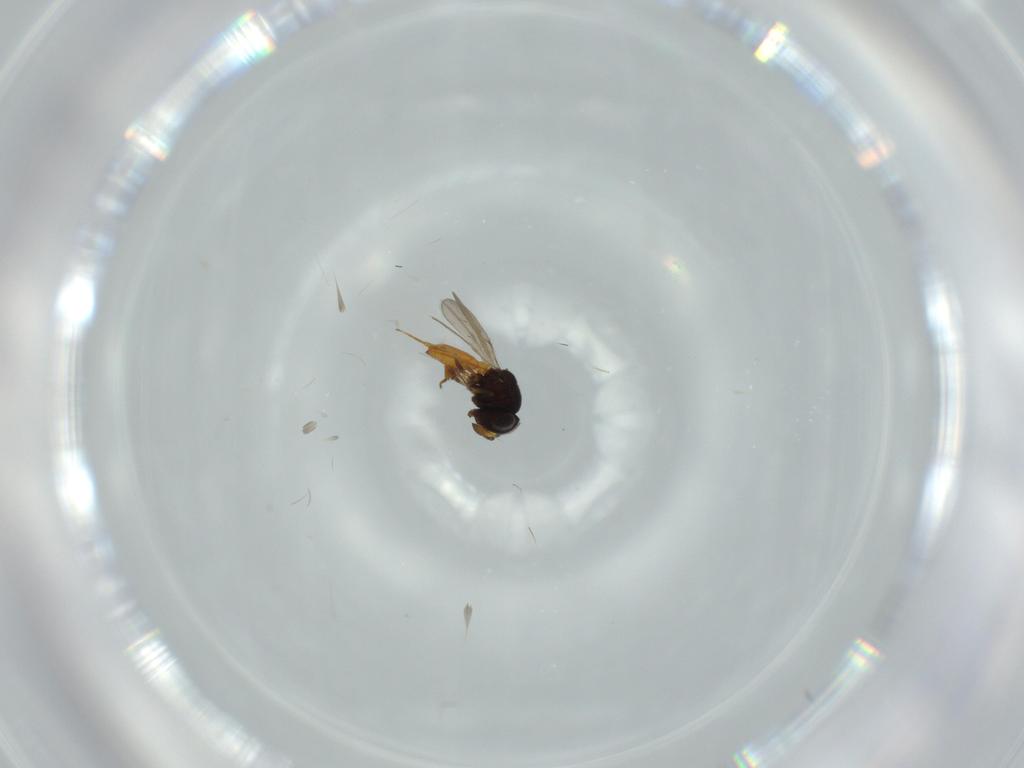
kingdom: Animalia
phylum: Arthropoda
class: Insecta
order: Hymenoptera
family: Scelionidae
